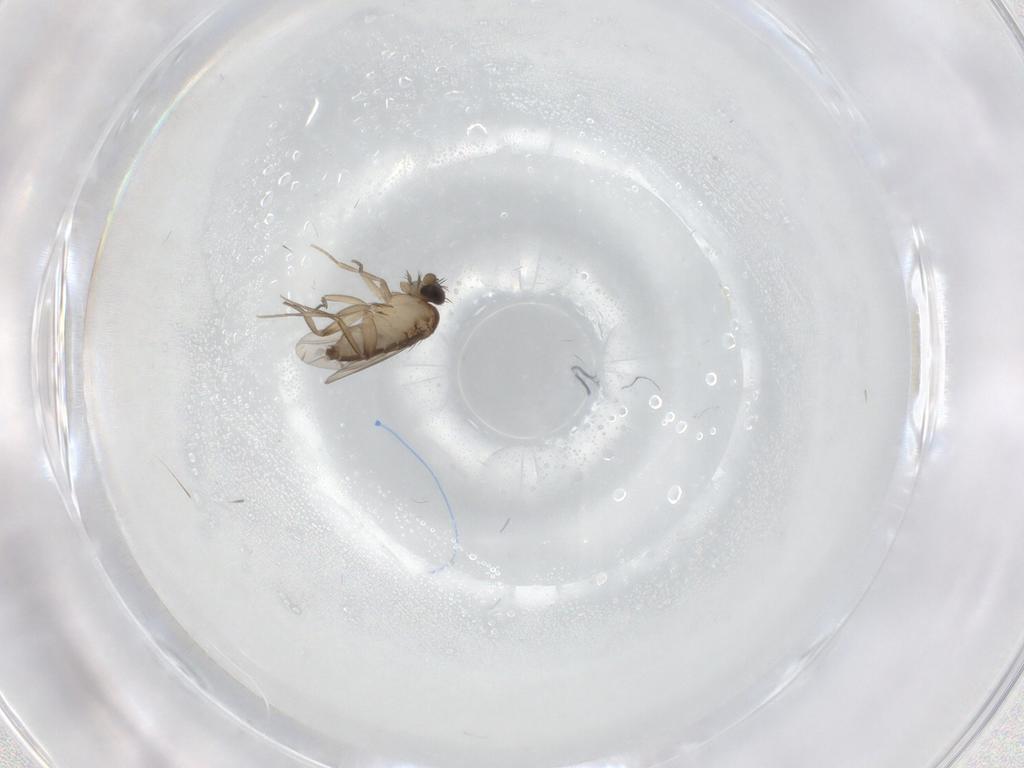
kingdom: Animalia
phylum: Arthropoda
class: Insecta
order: Diptera
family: Phoridae
